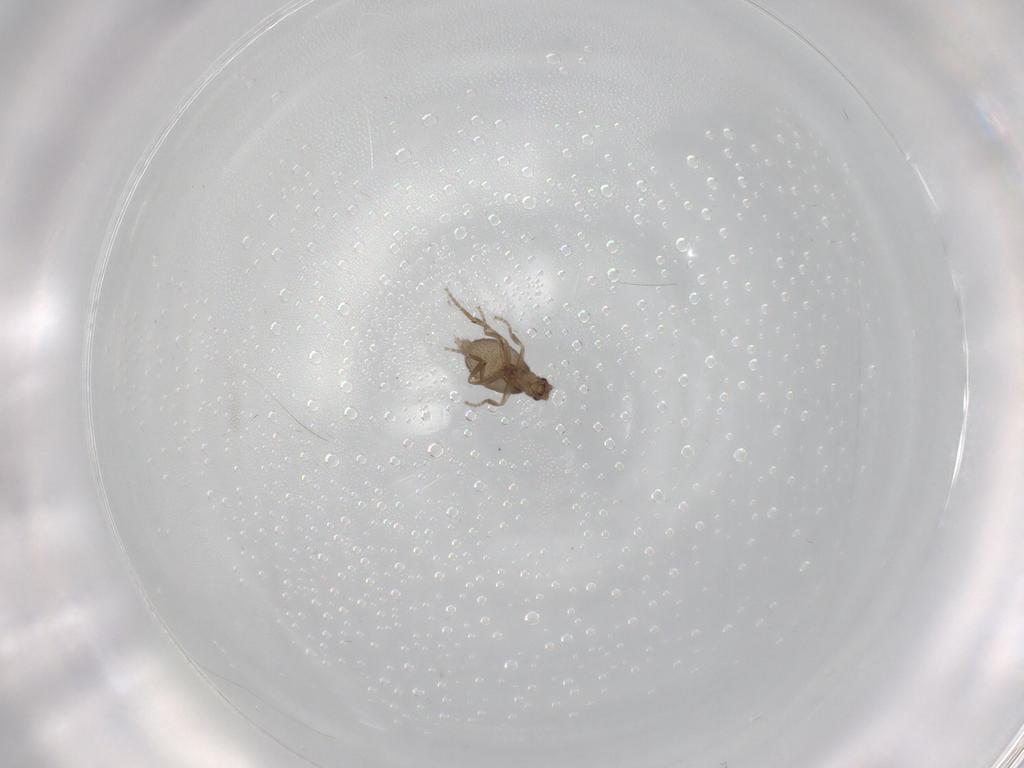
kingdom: Animalia
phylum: Arthropoda
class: Insecta
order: Diptera
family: Phoridae
